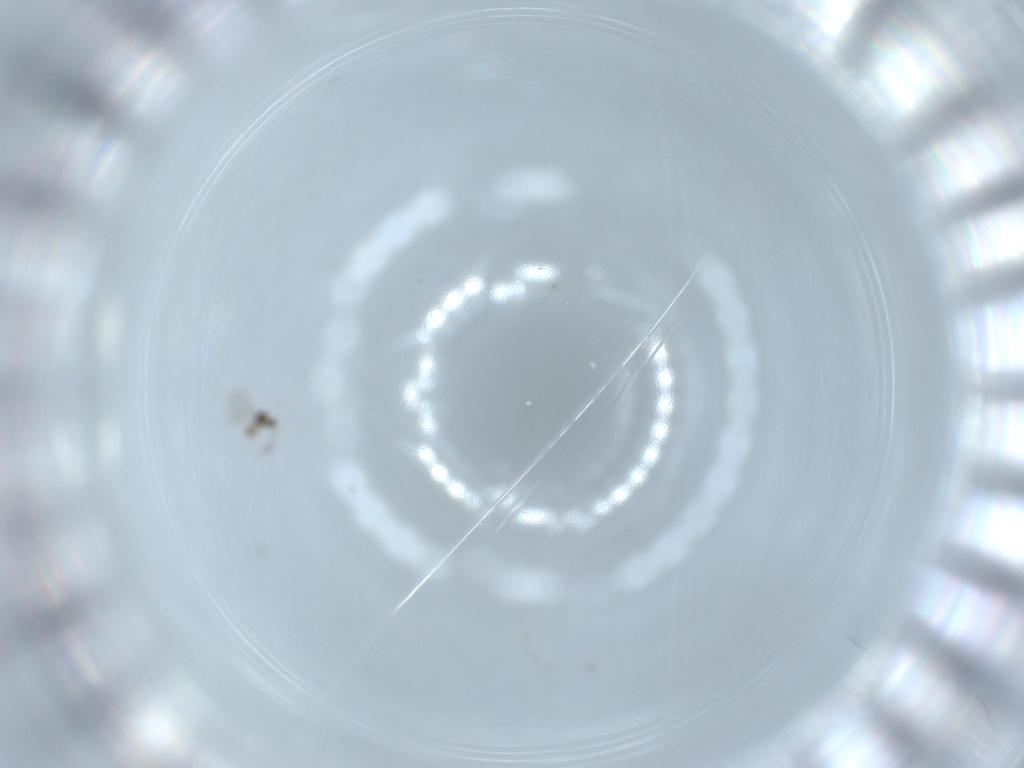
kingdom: Animalia
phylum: Arthropoda
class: Insecta
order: Hymenoptera
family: Mymaridae
